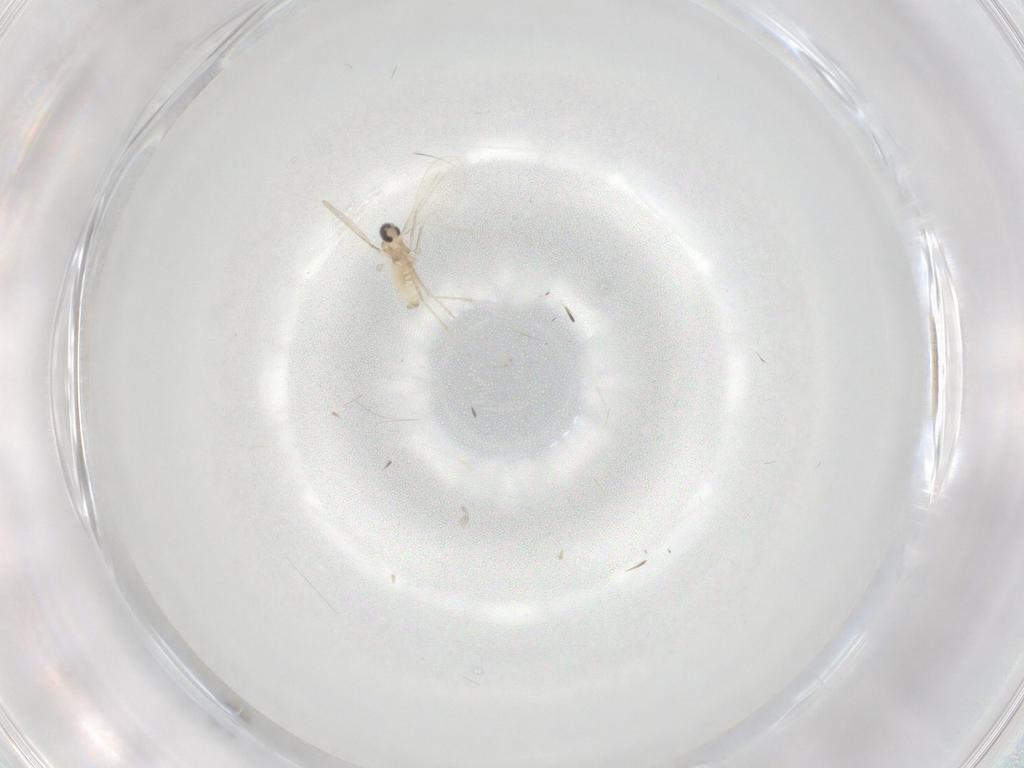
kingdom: Animalia
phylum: Arthropoda
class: Insecta
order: Diptera
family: Sciaridae
